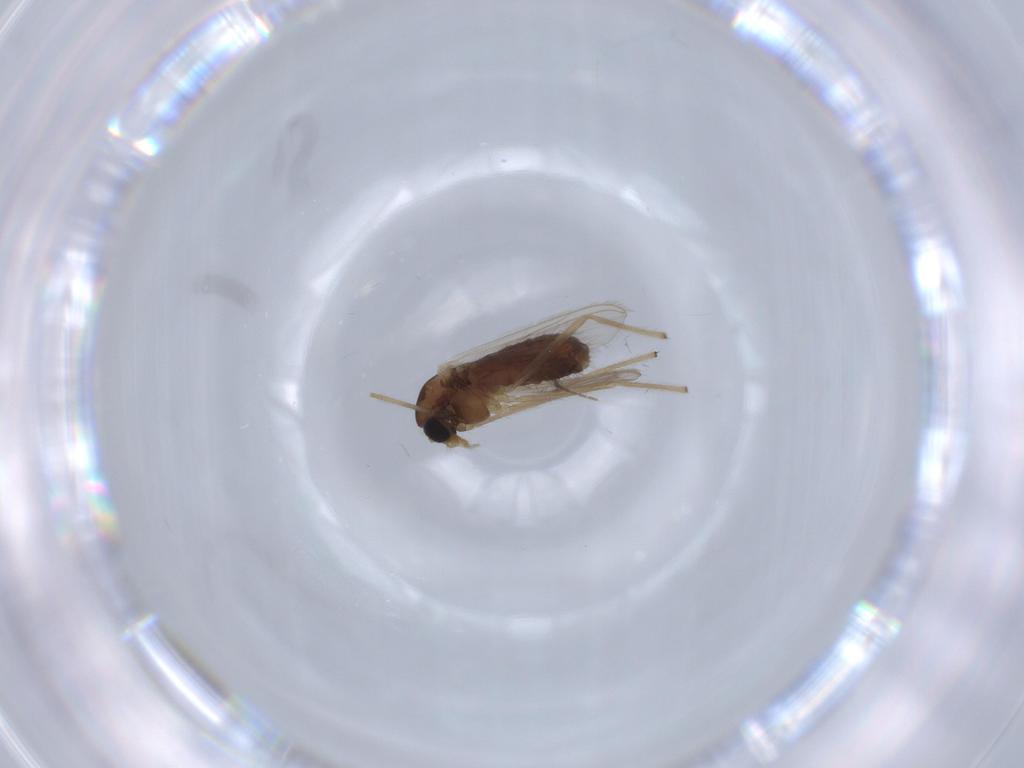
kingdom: Animalia
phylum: Arthropoda
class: Insecta
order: Diptera
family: Chironomidae
